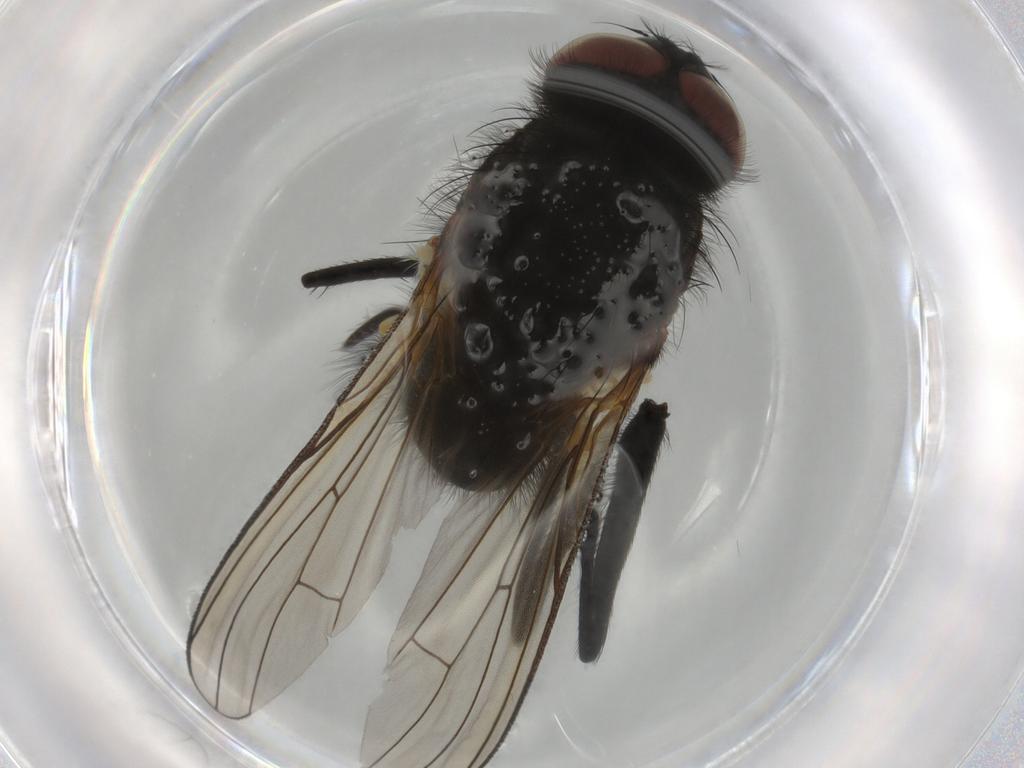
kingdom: Animalia
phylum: Arthropoda
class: Insecta
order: Diptera
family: Anthomyiidae
